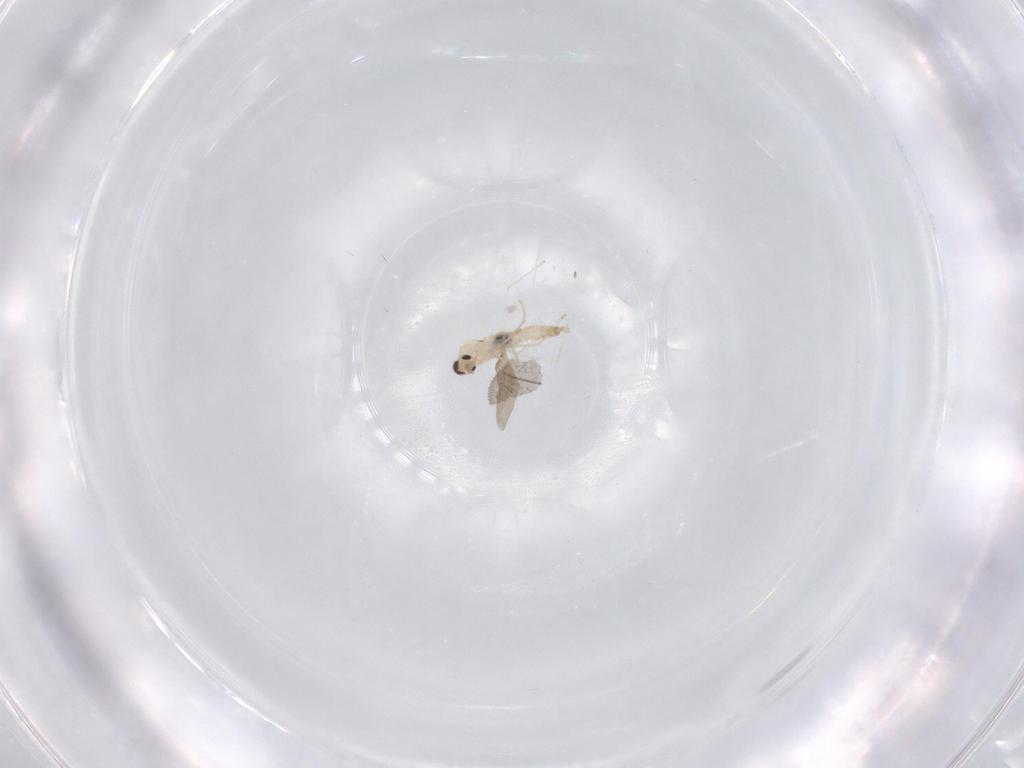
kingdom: Animalia
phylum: Arthropoda
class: Insecta
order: Diptera
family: Cecidomyiidae
